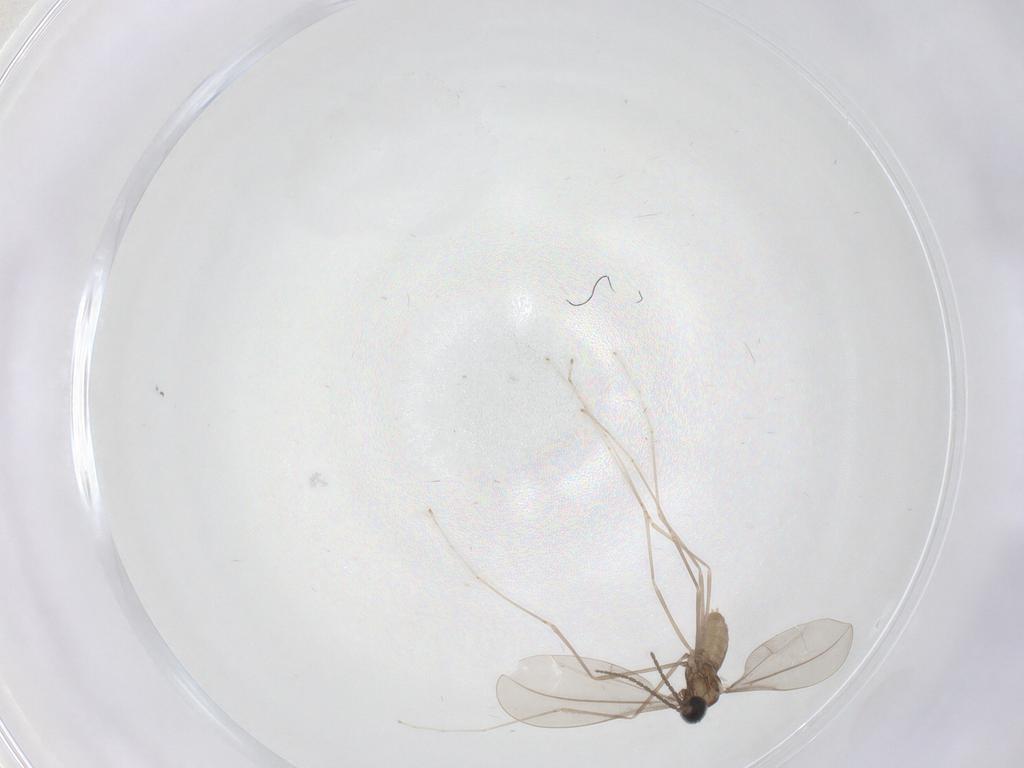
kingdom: Animalia
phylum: Arthropoda
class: Insecta
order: Diptera
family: Cecidomyiidae
